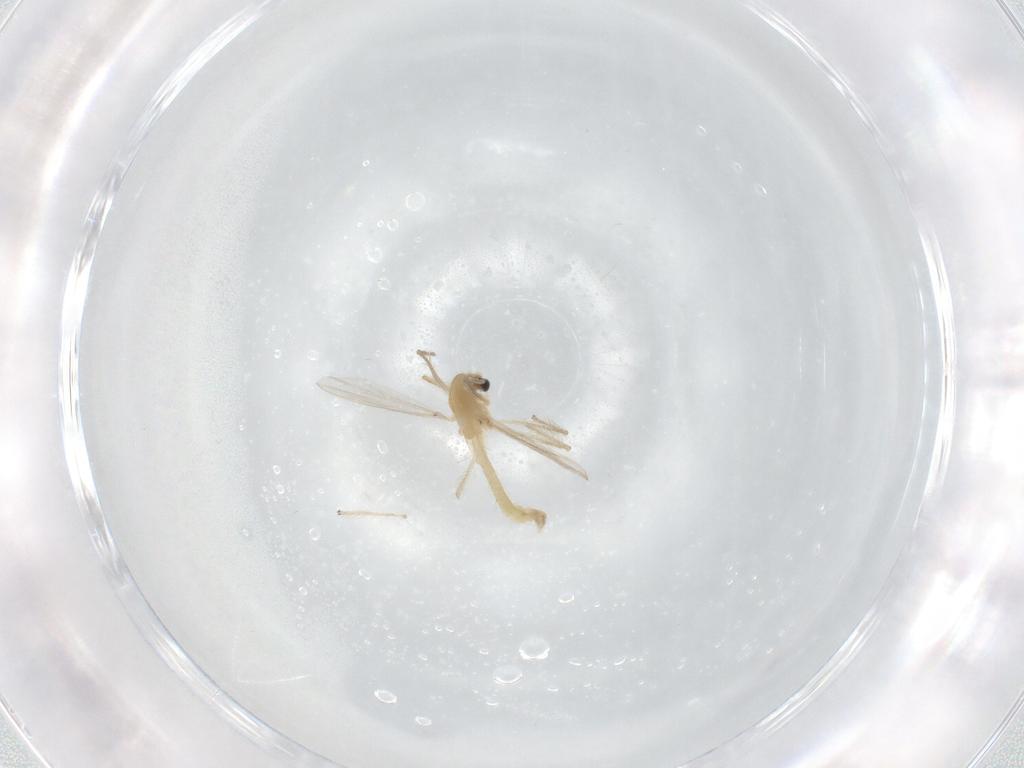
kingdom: Animalia
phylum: Arthropoda
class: Insecta
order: Diptera
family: Chironomidae
